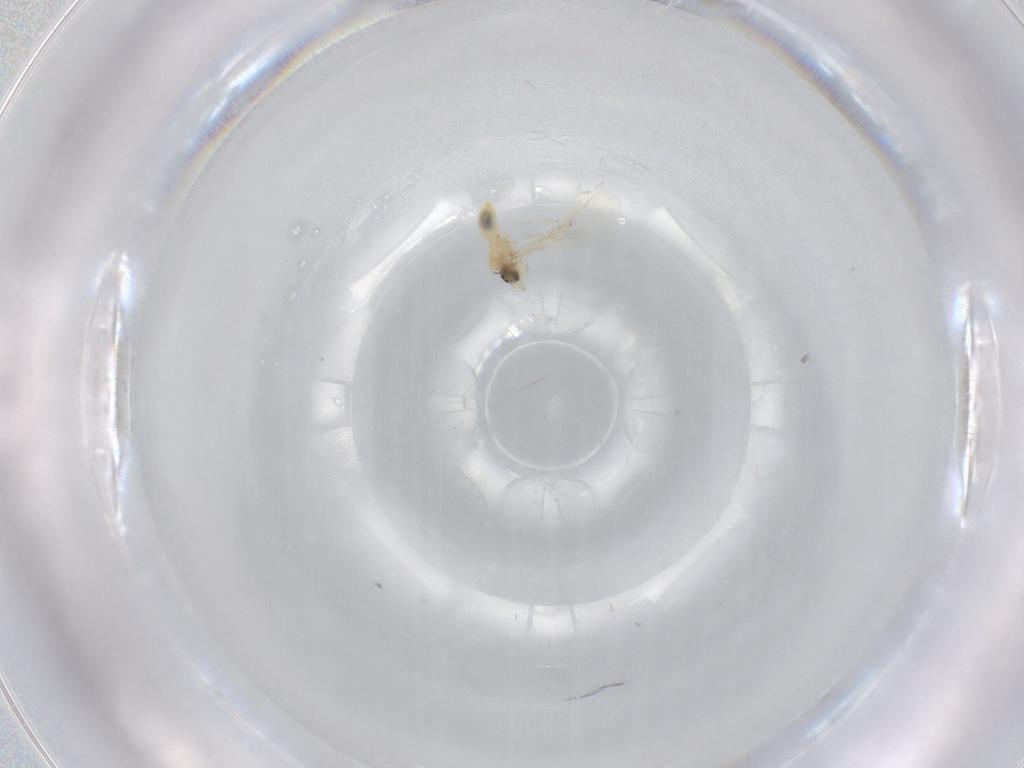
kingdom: Animalia
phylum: Arthropoda
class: Insecta
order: Diptera
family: Cecidomyiidae
